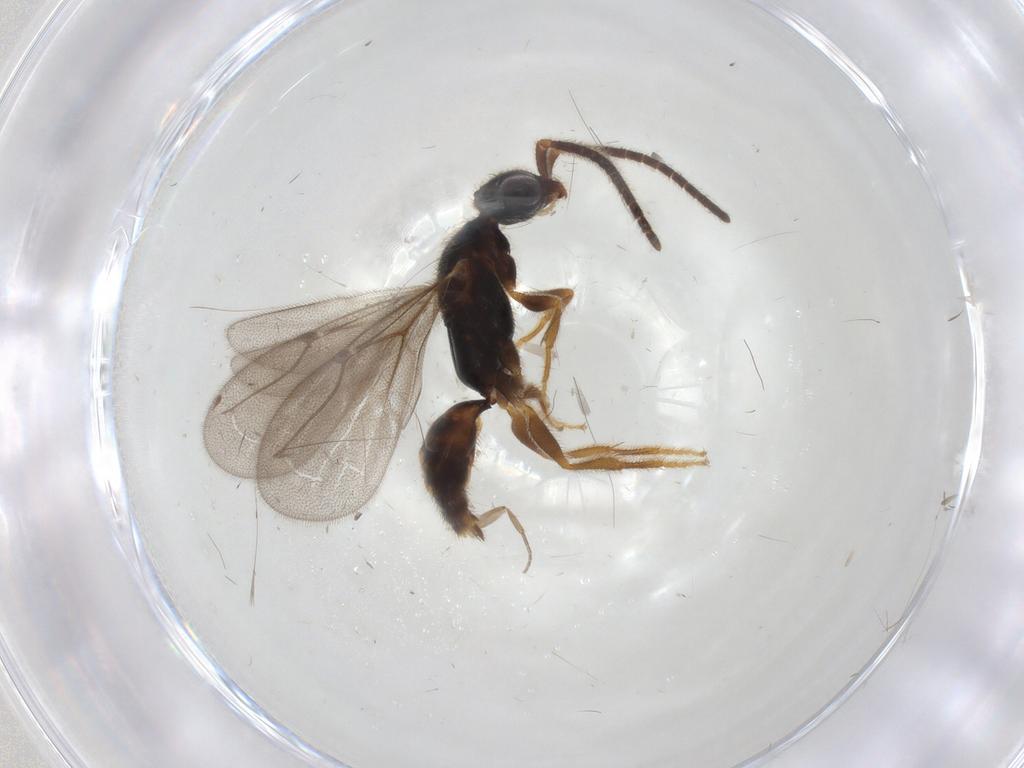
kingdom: Animalia
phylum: Arthropoda
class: Insecta
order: Hymenoptera
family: Bethylidae
